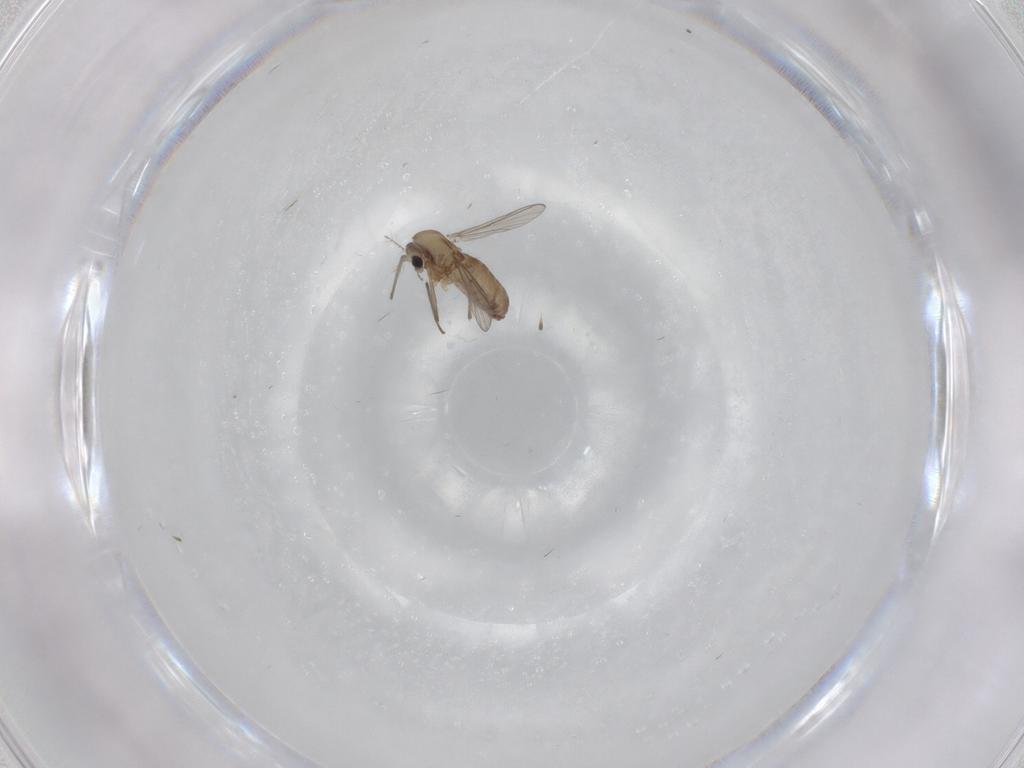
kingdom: Animalia
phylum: Arthropoda
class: Insecta
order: Diptera
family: Chironomidae
